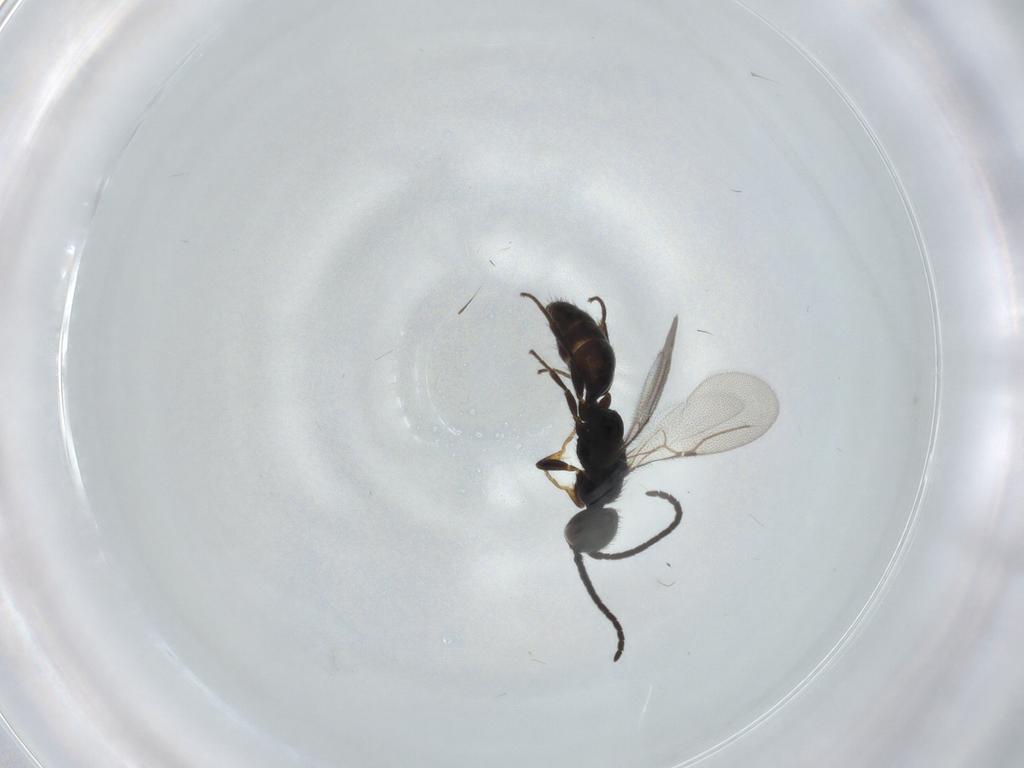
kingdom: Animalia
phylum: Arthropoda
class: Insecta
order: Hymenoptera
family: Bethylidae
